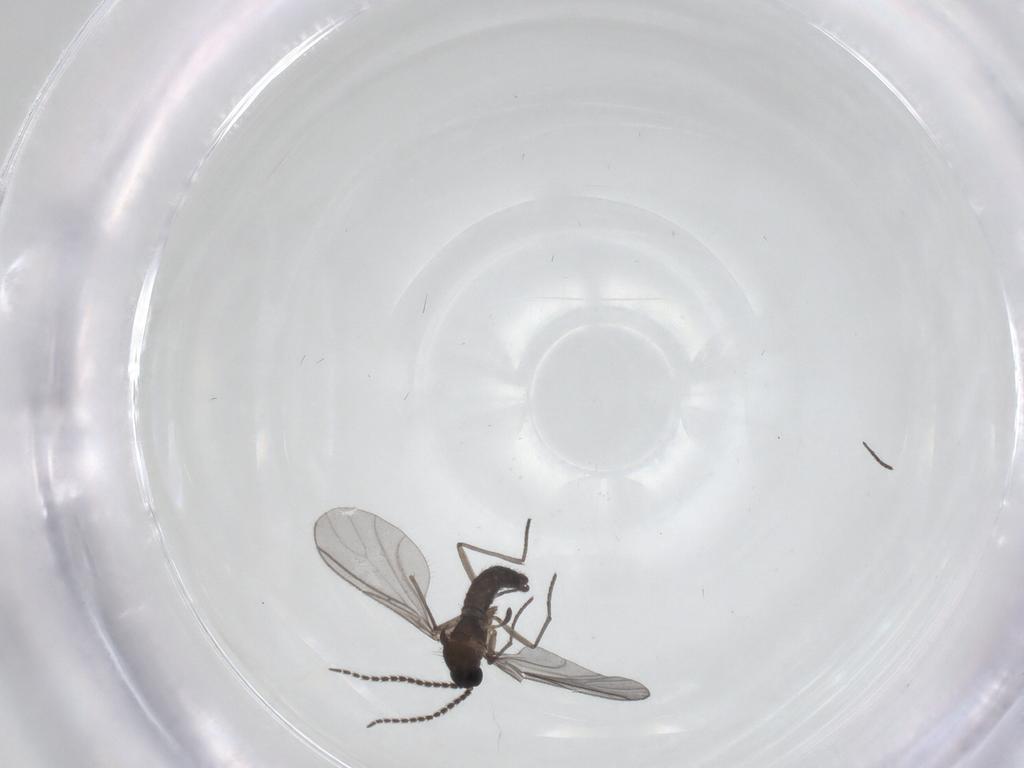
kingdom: Animalia
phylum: Arthropoda
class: Insecta
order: Diptera
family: Sciaridae
